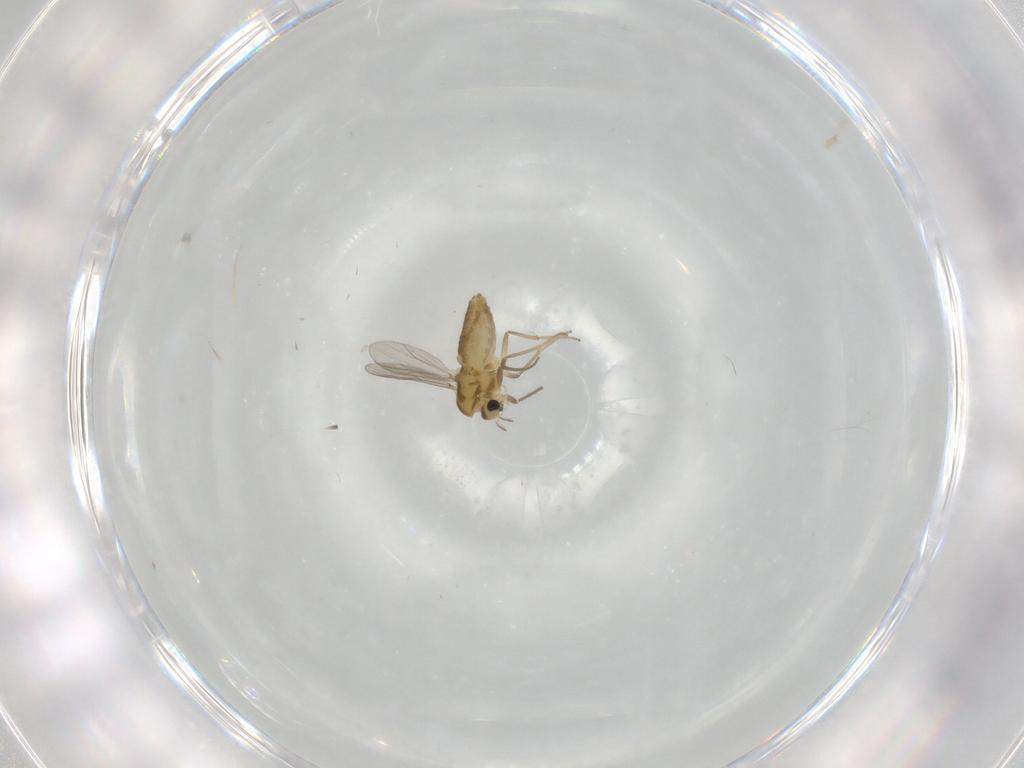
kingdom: Animalia
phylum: Arthropoda
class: Insecta
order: Diptera
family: Chironomidae
